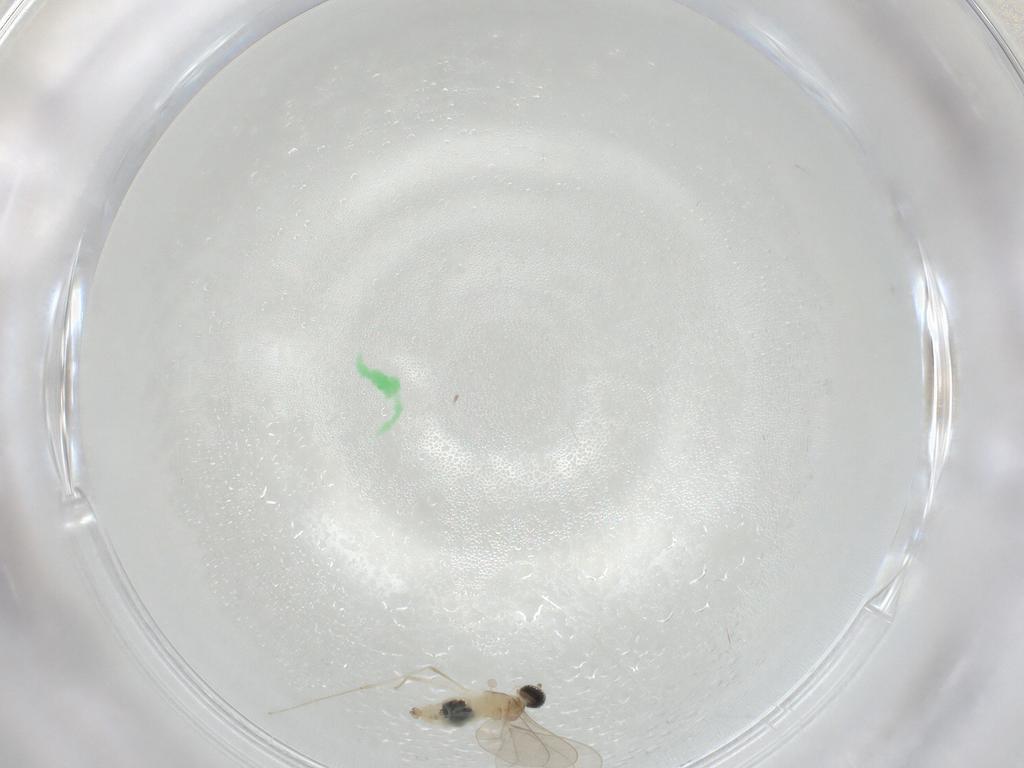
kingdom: Animalia
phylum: Arthropoda
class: Insecta
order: Diptera
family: Cecidomyiidae
